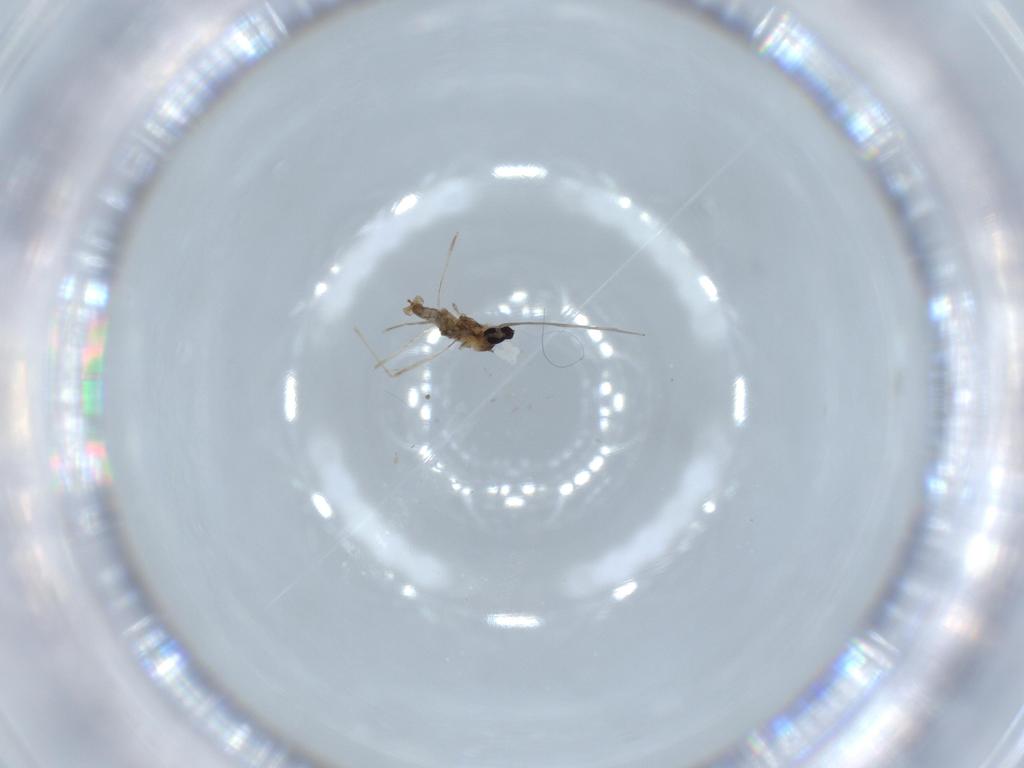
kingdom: Animalia
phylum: Arthropoda
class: Insecta
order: Diptera
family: Cecidomyiidae
